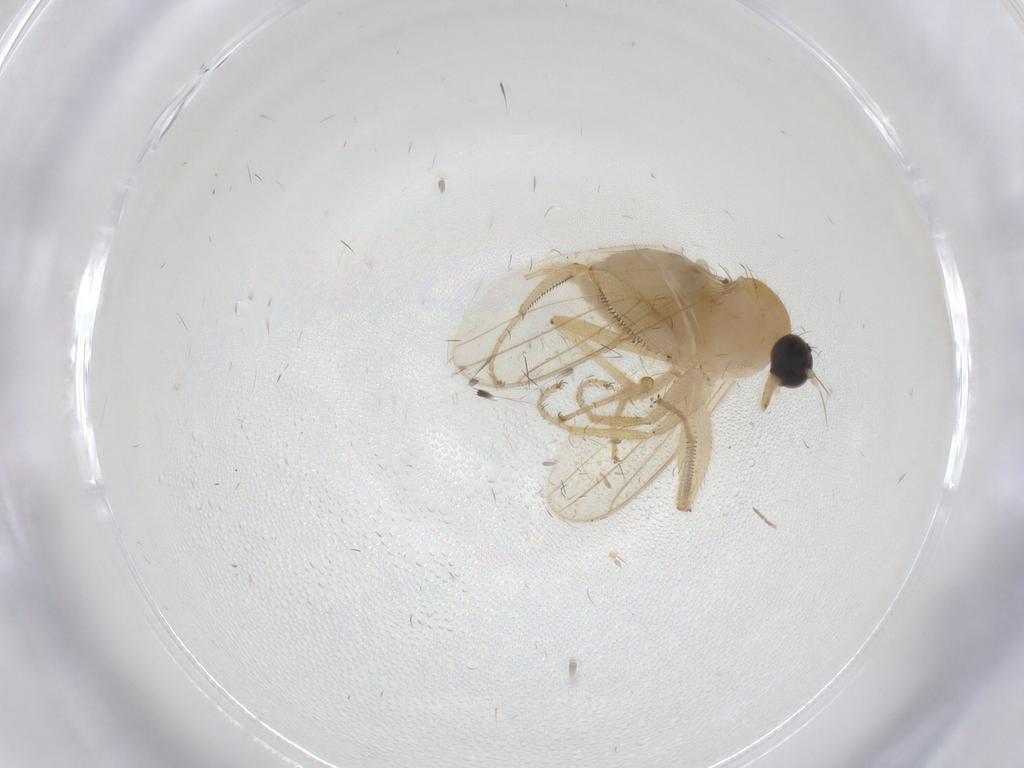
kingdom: Animalia
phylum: Arthropoda
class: Insecta
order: Diptera
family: Hybotidae
